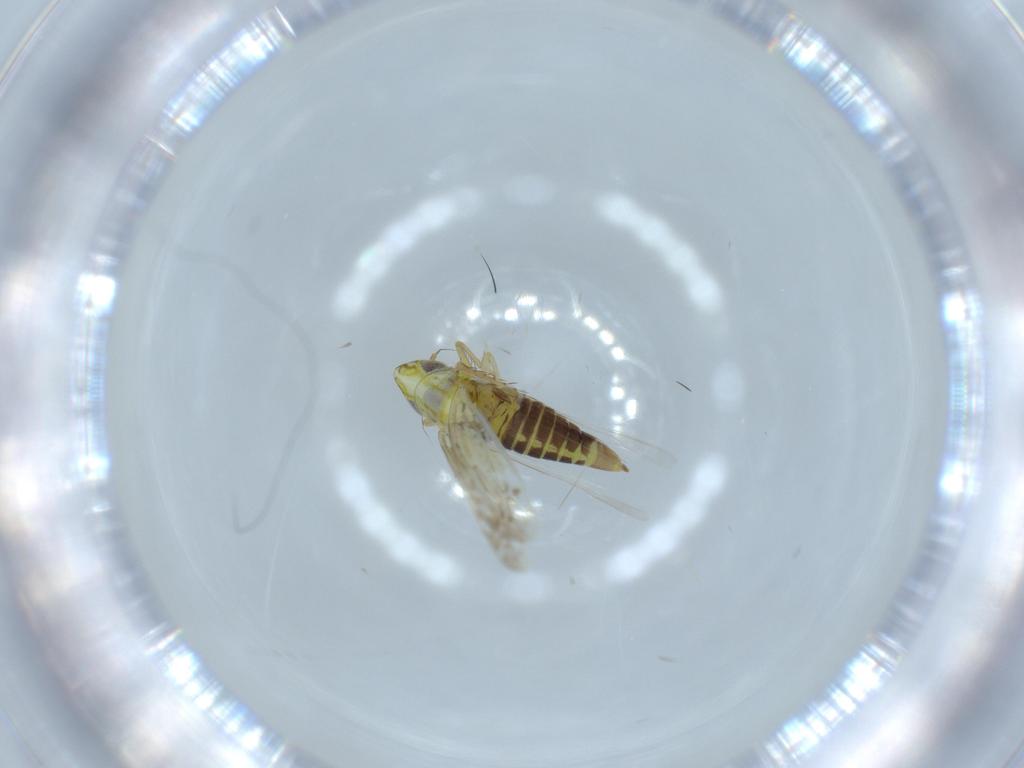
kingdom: Animalia
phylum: Arthropoda
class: Insecta
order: Hemiptera
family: Cicadellidae
